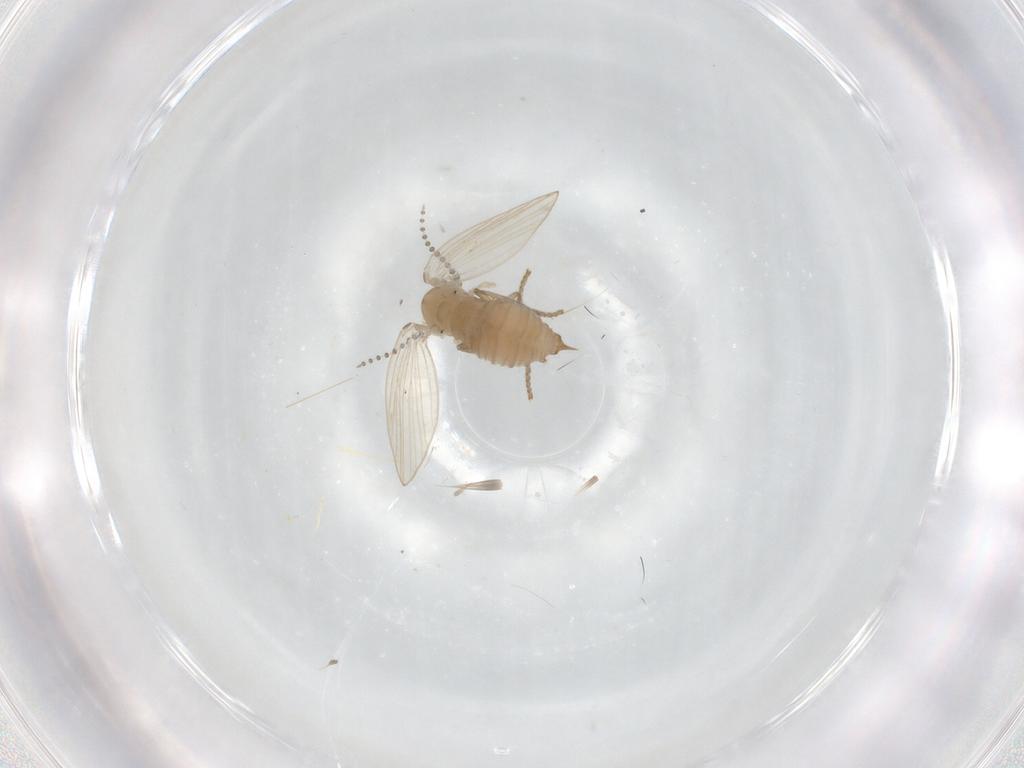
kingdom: Animalia
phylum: Arthropoda
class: Insecta
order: Diptera
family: Psychodidae
